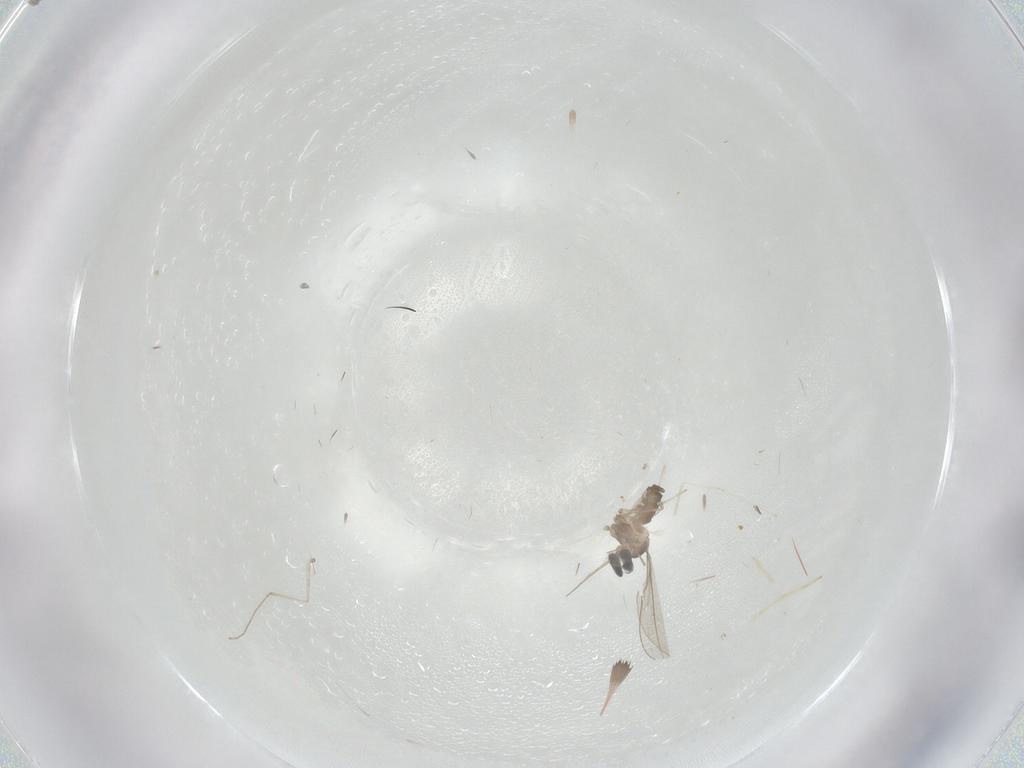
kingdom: Animalia
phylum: Arthropoda
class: Insecta
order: Diptera
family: Cecidomyiidae
